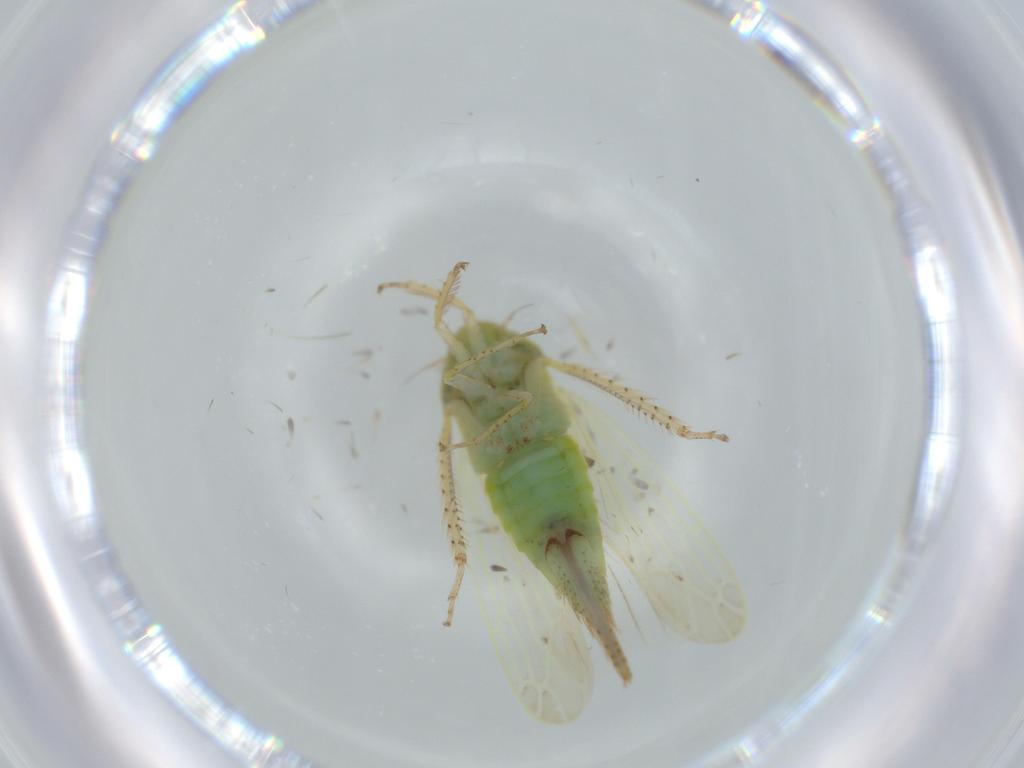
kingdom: Animalia
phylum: Arthropoda
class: Insecta
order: Hemiptera
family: Cicadellidae
